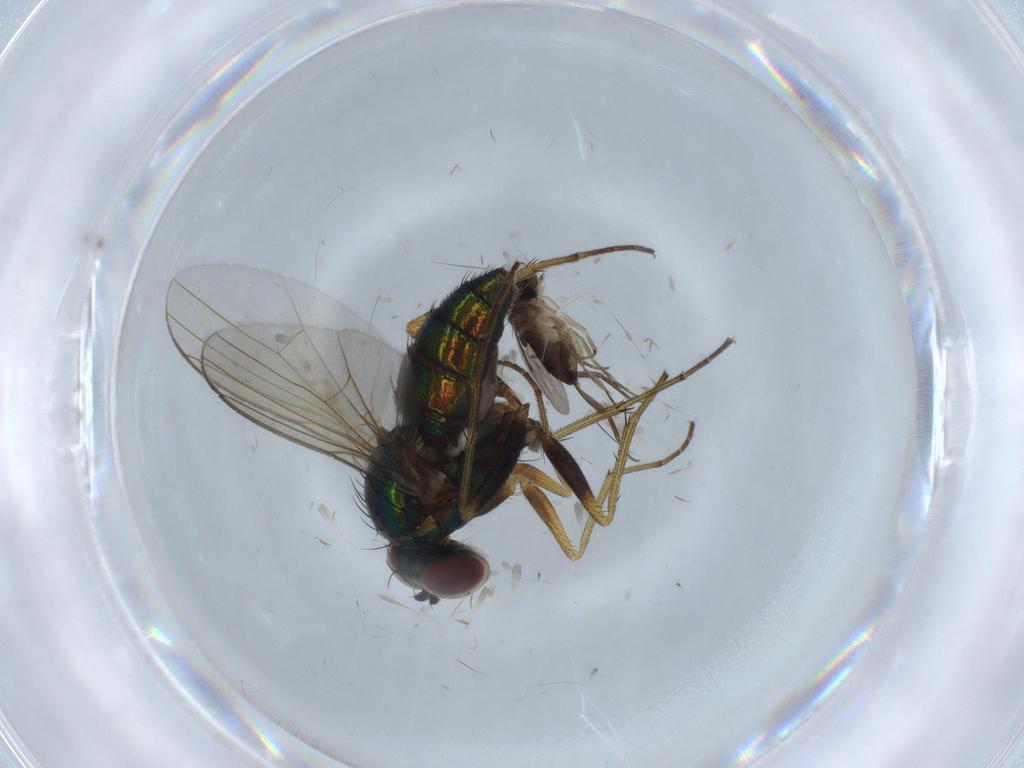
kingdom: Animalia
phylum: Arthropoda
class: Insecta
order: Diptera
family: Dolichopodidae
